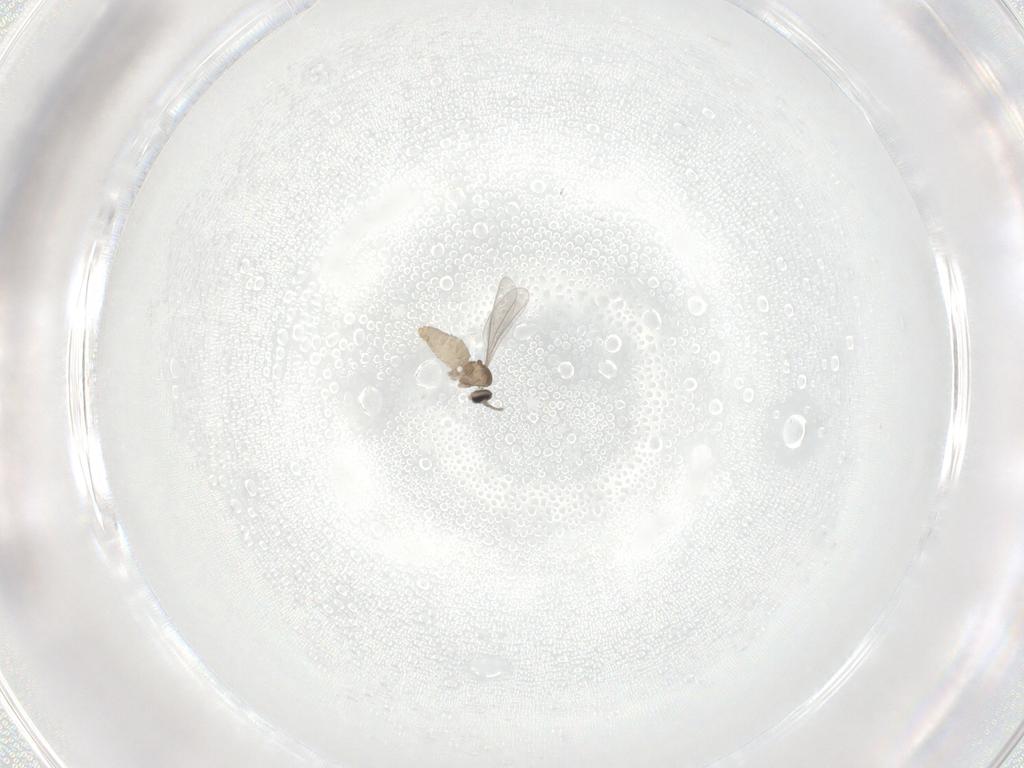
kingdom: Animalia
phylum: Arthropoda
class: Insecta
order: Diptera
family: Cecidomyiidae
